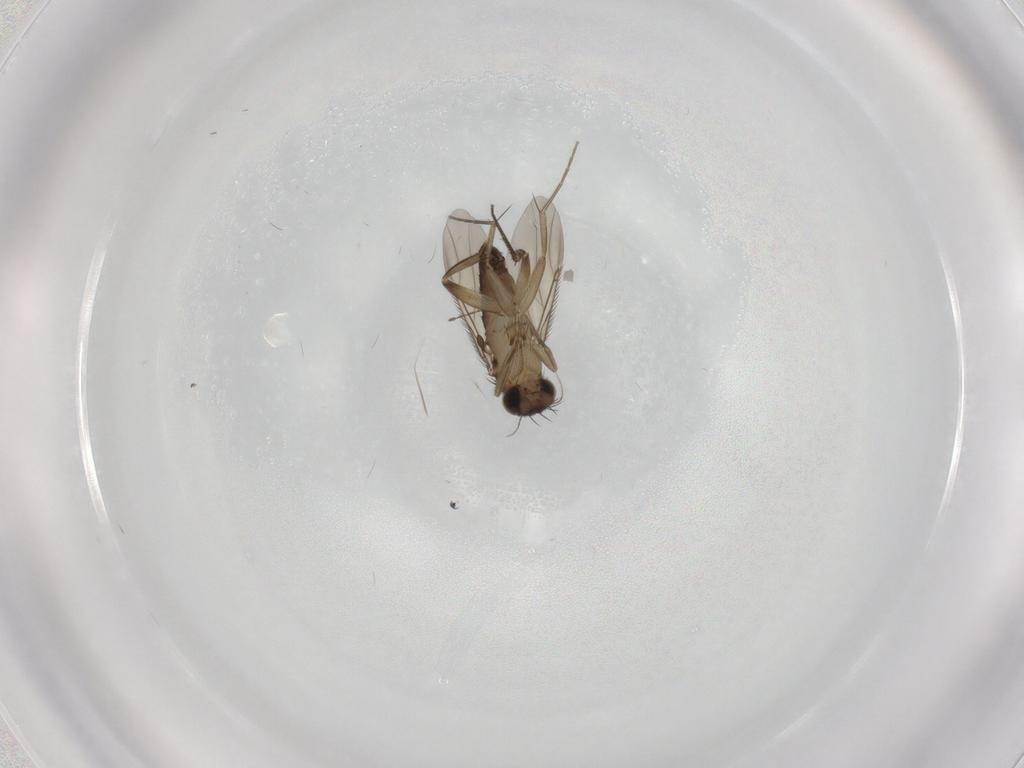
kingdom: Animalia
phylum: Arthropoda
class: Insecta
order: Diptera
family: Phoridae
